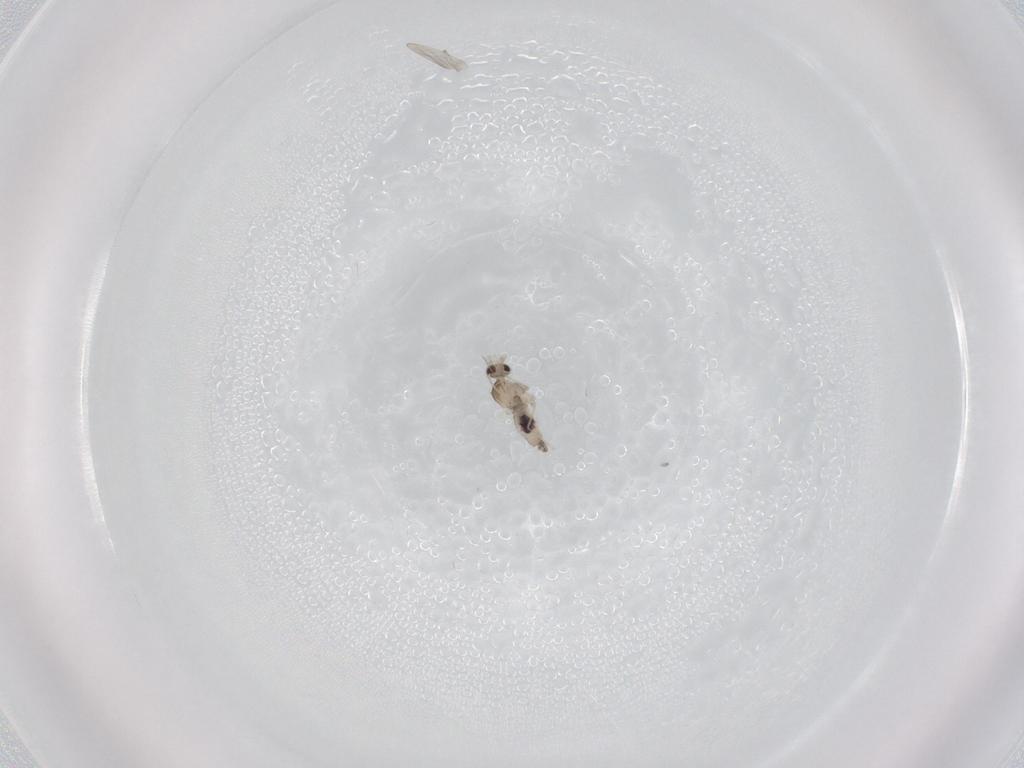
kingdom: Animalia
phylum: Arthropoda
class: Insecta
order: Diptera
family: Cecidomyiidae
